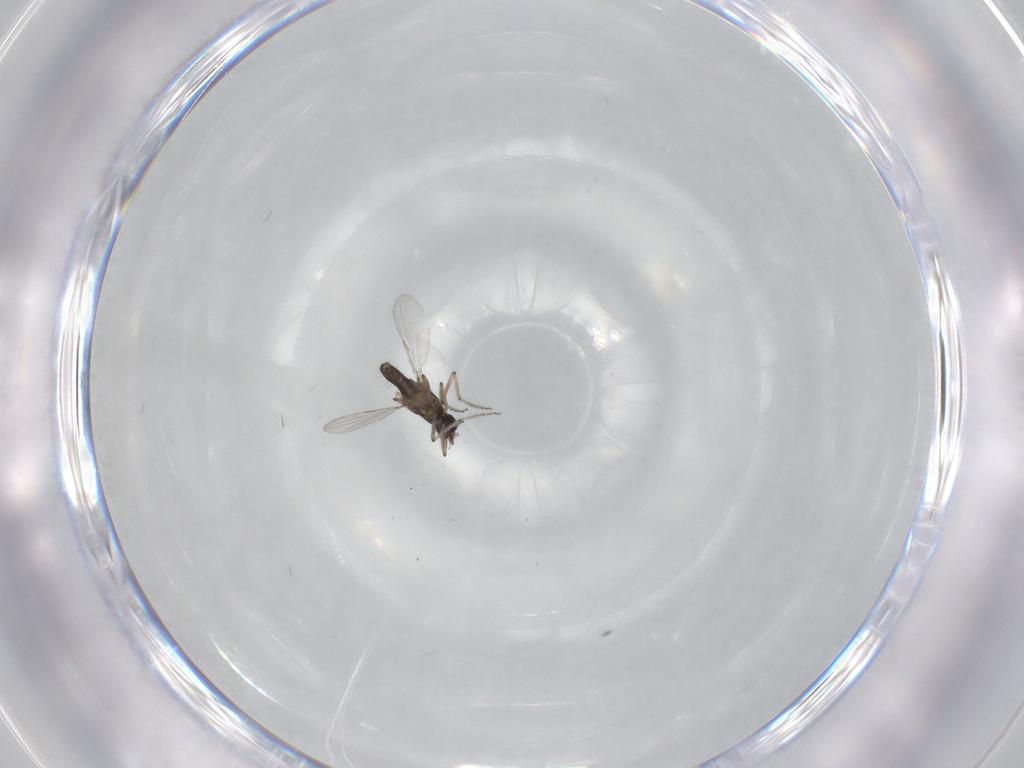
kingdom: Animalia
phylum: Arthropoda
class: Insecta
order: Diptera
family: Ceratopogonidae
